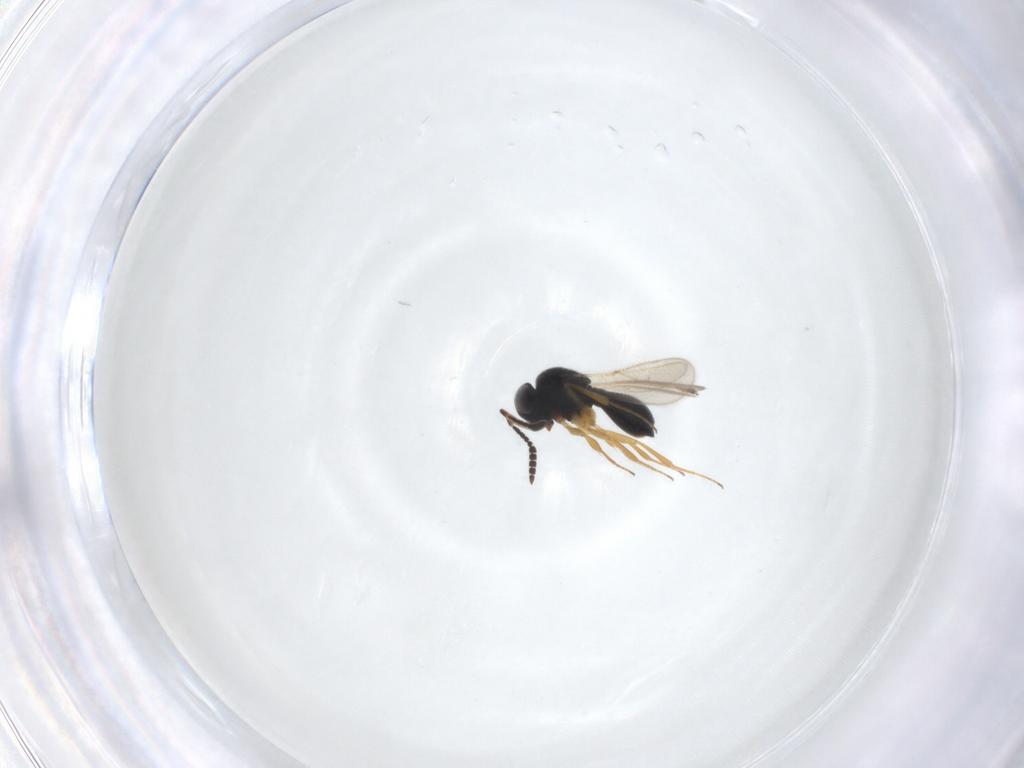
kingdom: Animalia
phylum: Arthropoda
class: Insecta
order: Hymenoptera
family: Scelionidae
